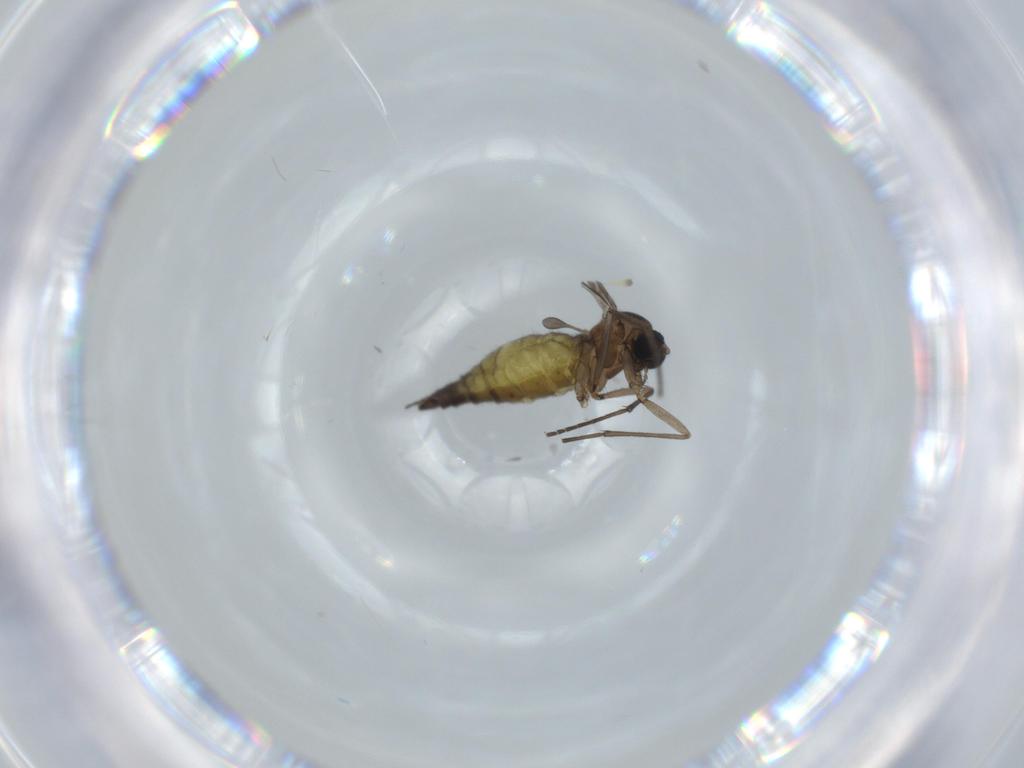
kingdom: Animalia
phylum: Arthropoda
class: Insecta
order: Diptera
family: Sciaridae
